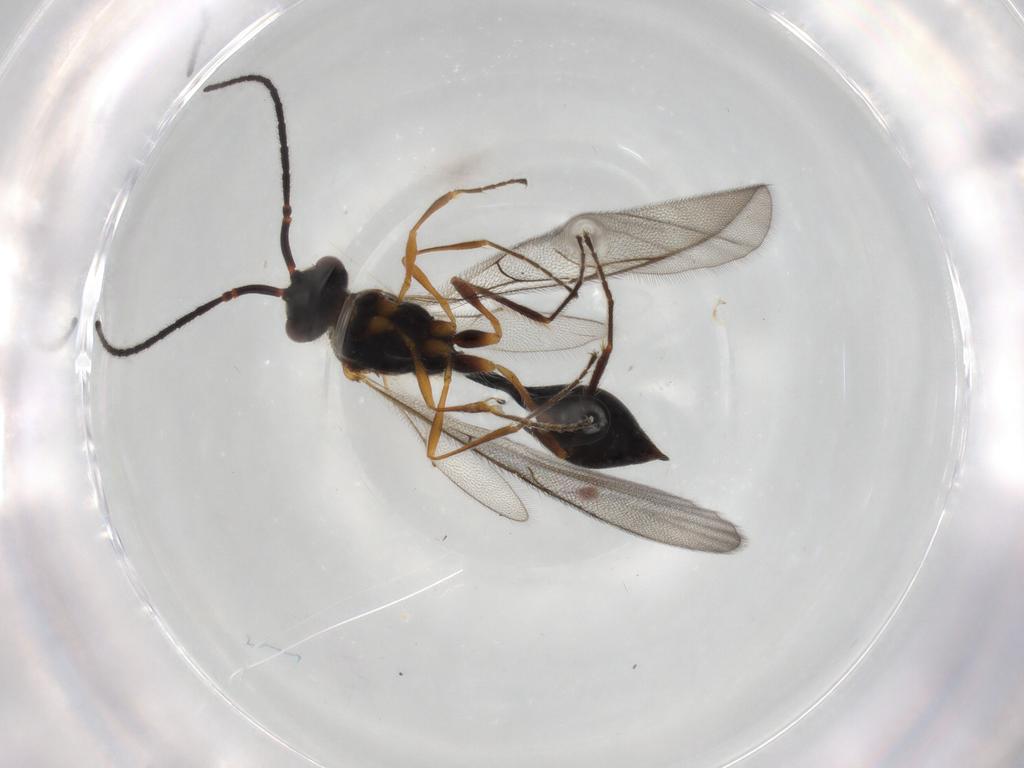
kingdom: Animalia
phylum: Arthropoda
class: Insecta
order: Hymenoptera
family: Diapriidae
